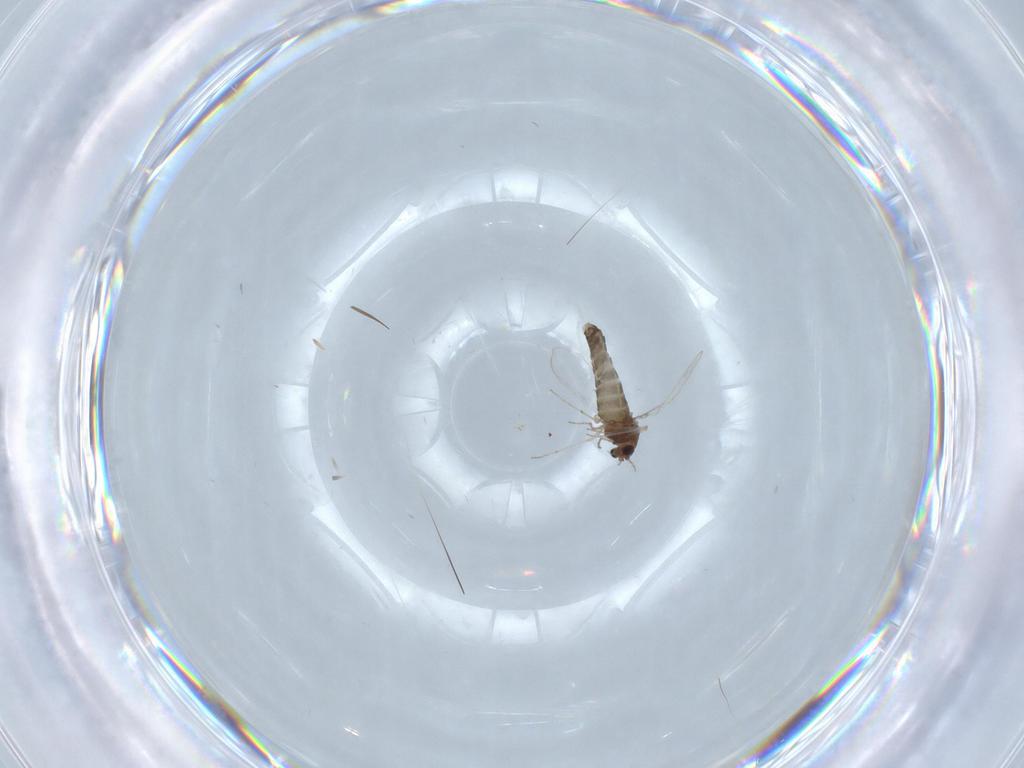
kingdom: Animalia
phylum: Arthropoda
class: Insecta
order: Diptera
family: Chironomidae
